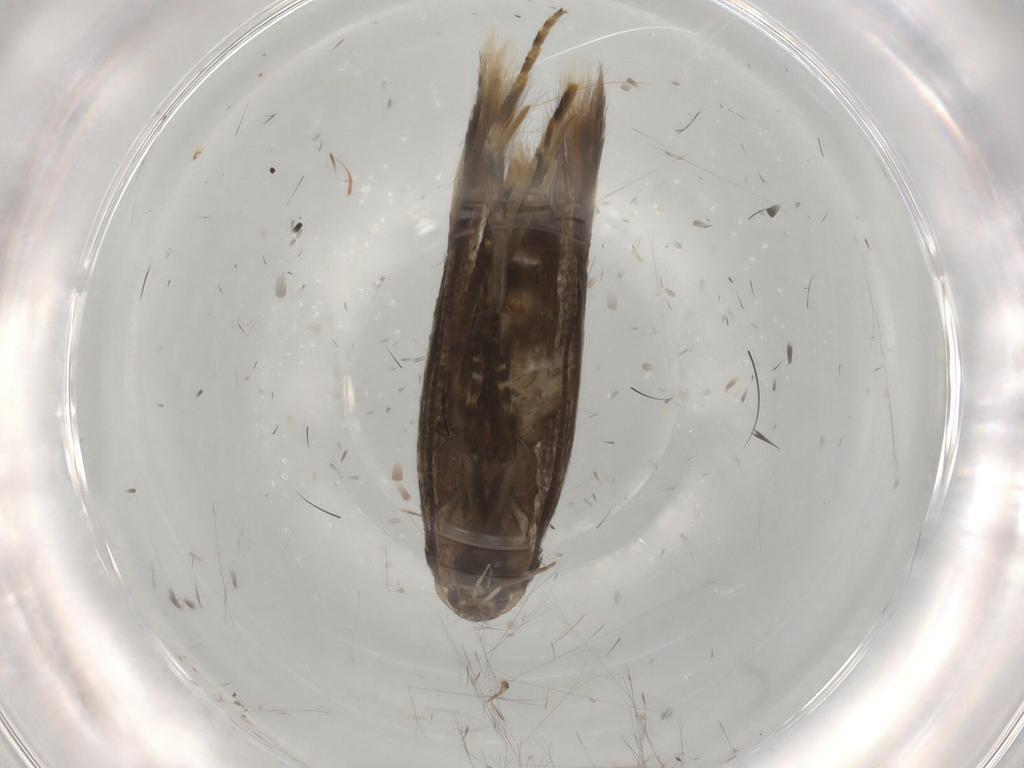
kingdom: Animalia
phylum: Arthropoda
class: Insecta
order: Lepidoptera
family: Elachistidae
